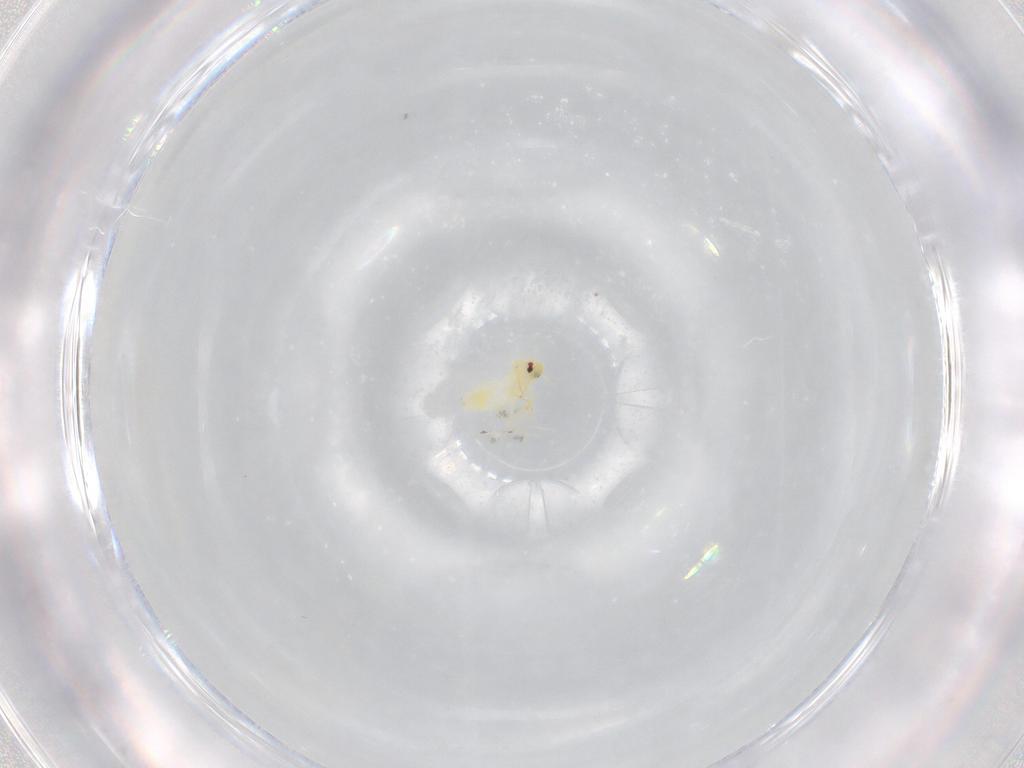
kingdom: Animalia
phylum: Arthropoda
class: Insecta
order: Hemiptera
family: Aleyrodidae
